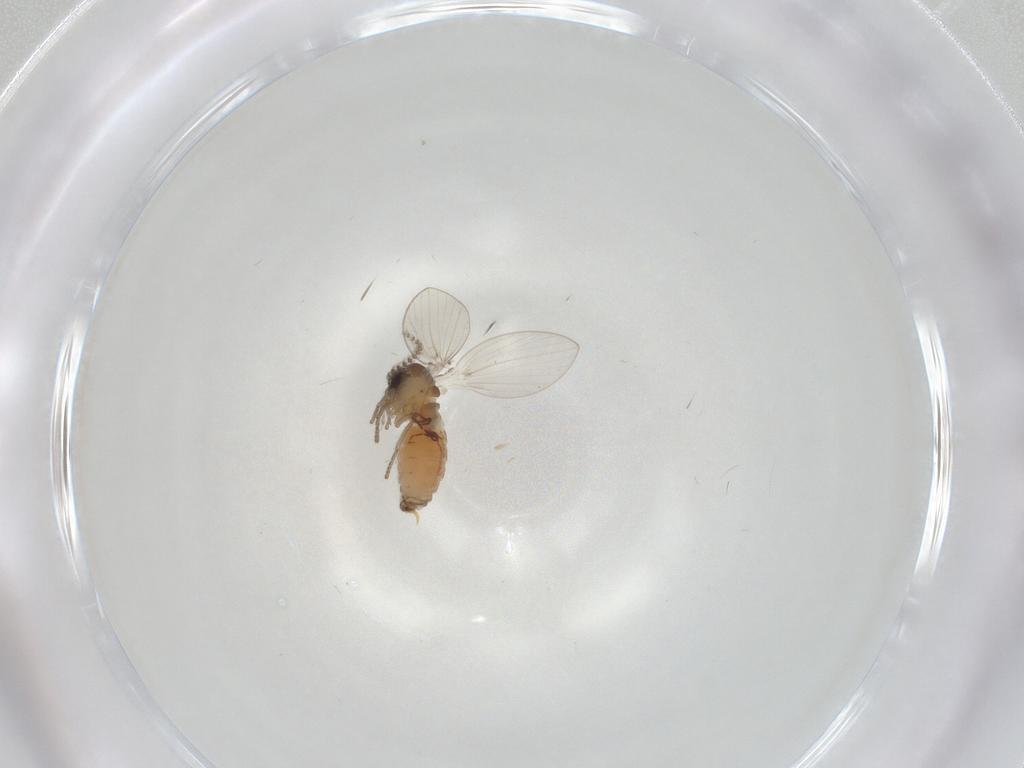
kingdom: Animalia
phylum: Arthropoda
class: Insecta
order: Diptera
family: Psychodidae
